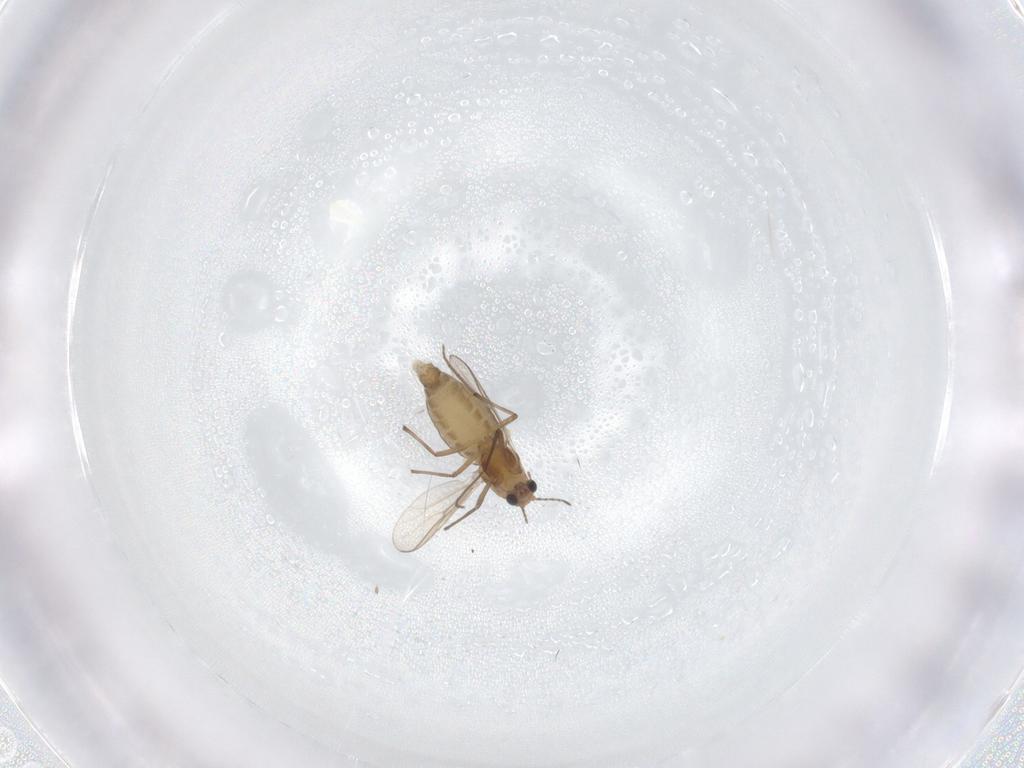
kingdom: Animalia
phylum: Arthropoda
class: Insecta
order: Diptera
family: Chironomidae
